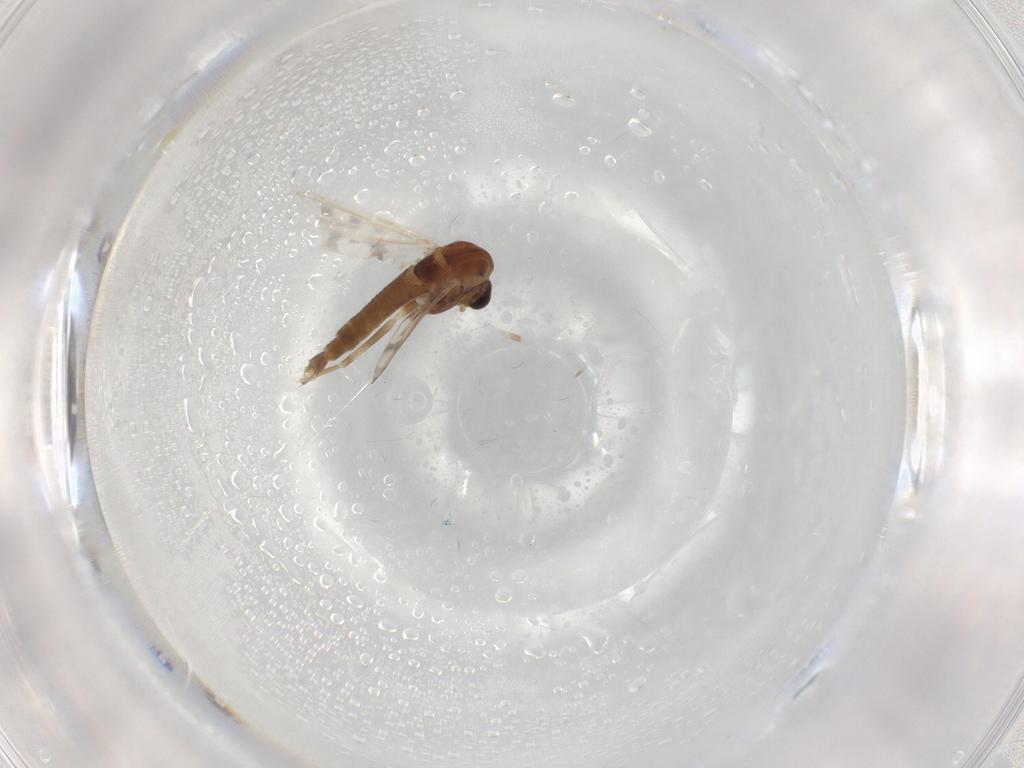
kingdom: Animalia
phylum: Arthropoda
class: Insecta
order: Diptera
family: Chironomidae
